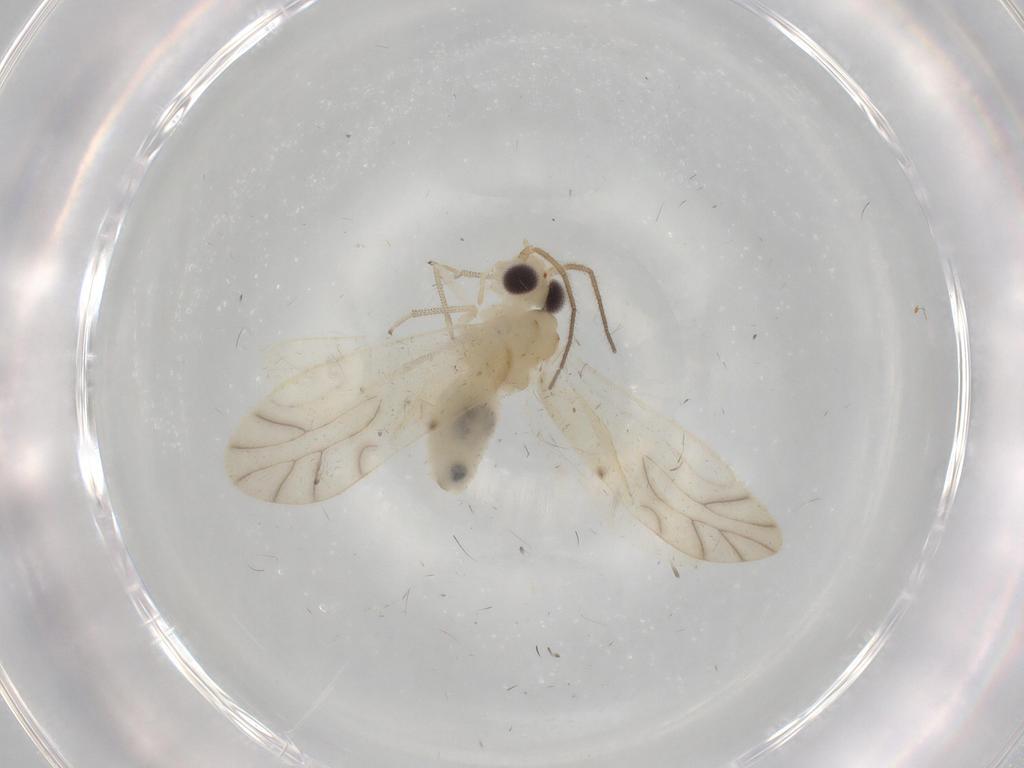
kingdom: Animalia
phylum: Arthropoda
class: Insecta
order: Psocodea
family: Caeciliusidae
